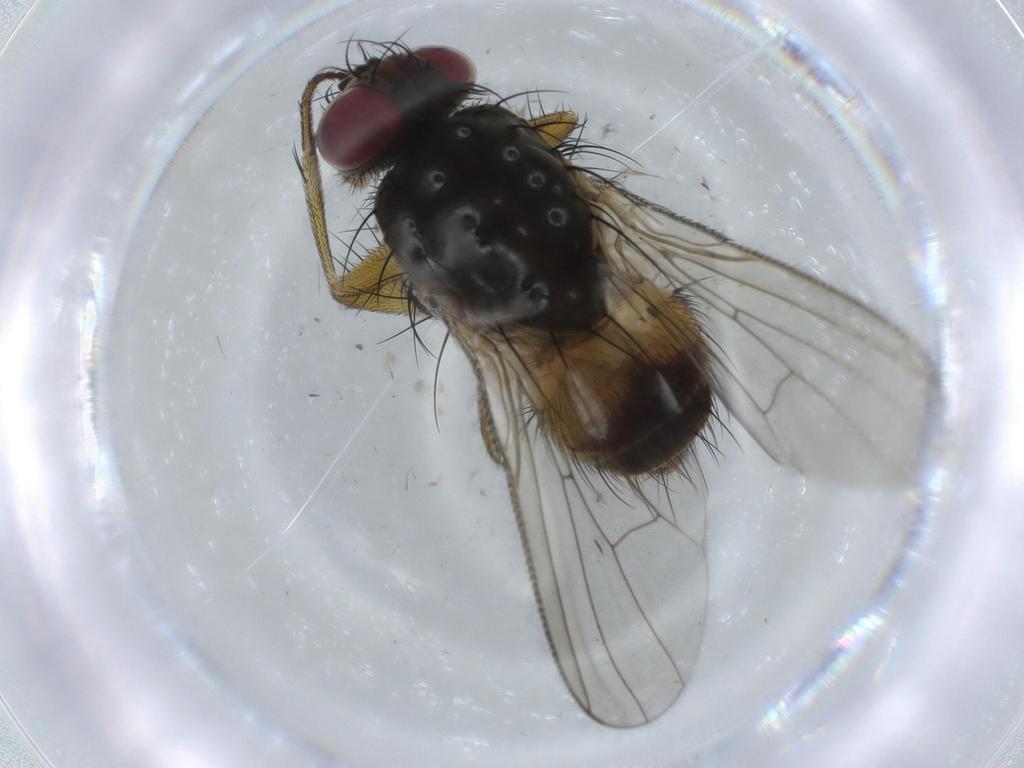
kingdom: Animalia
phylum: Arthropoda
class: Insecta
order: Diptera
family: Muscidae
